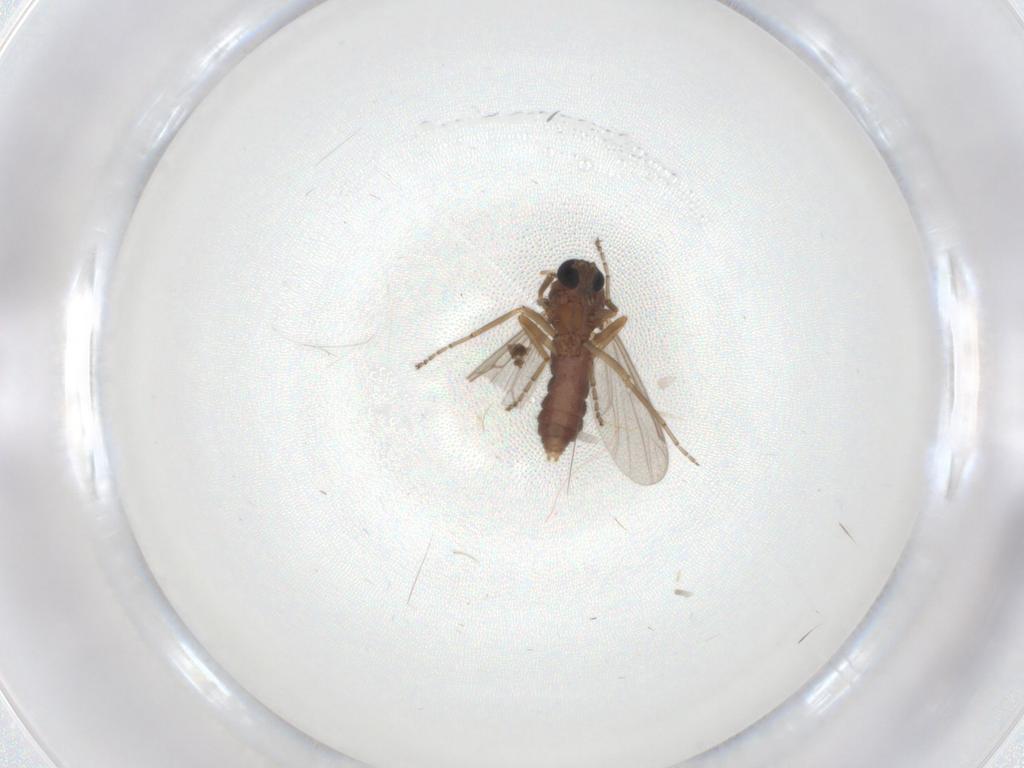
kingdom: Animalia
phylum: Arthropoda
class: Insecta
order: Diptera
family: Ceratopogonidae
